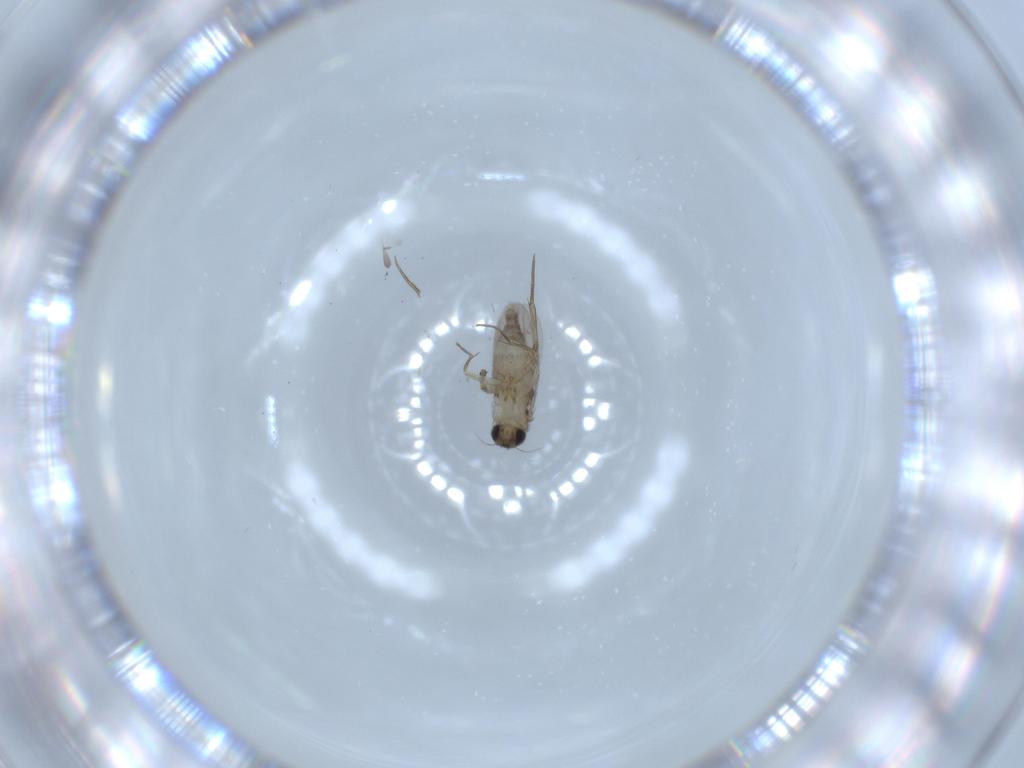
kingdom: Animalia
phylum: Arthropoda
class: Insecta
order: Diptera
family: Phoridae
